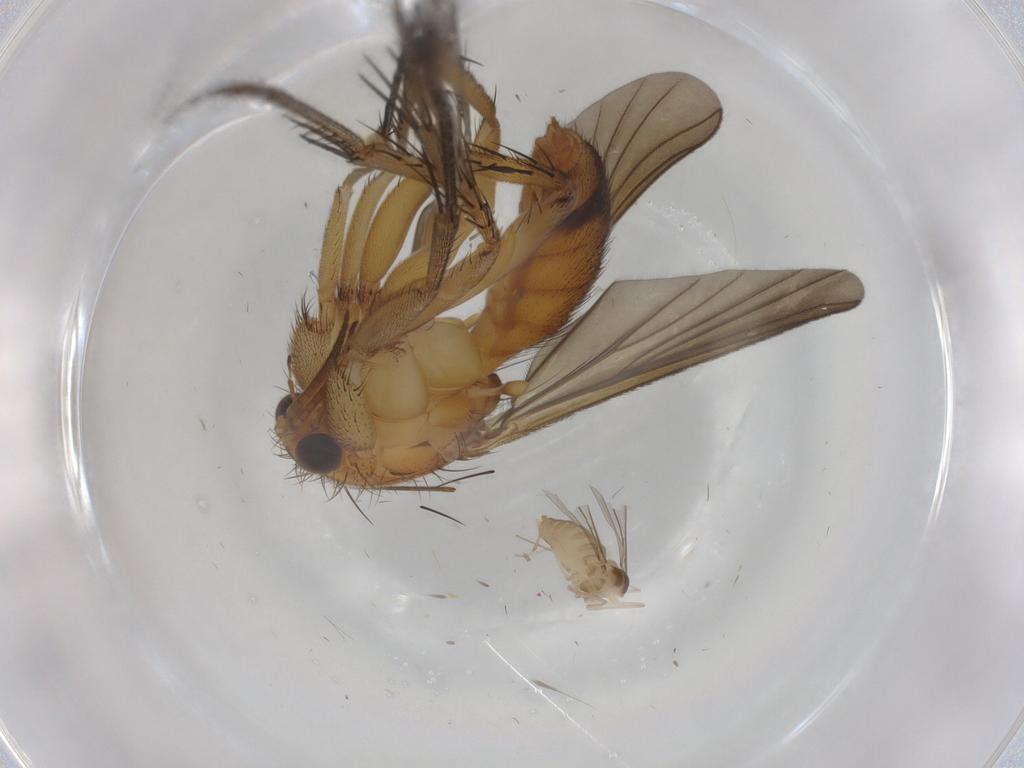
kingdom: Animalia
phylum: Arthropoda
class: Insecta
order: Diptera
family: Cecidomyiidae
